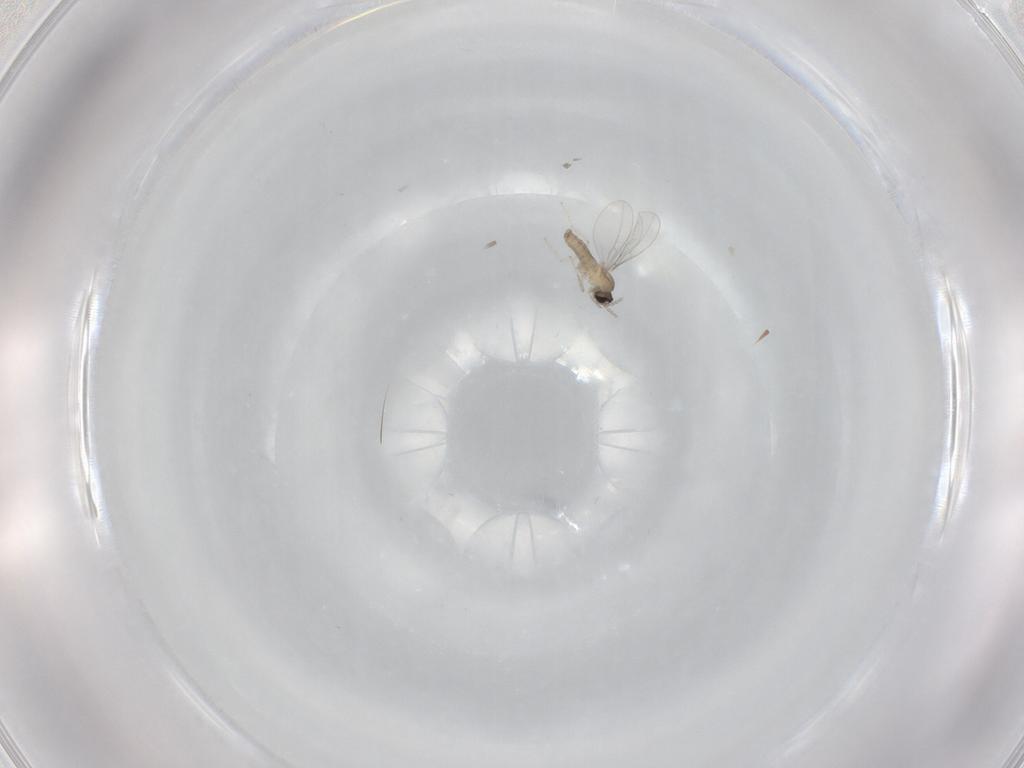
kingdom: Animalia
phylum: Arthropoda
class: Insecta
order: Diptera
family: Cecidomyiidae
